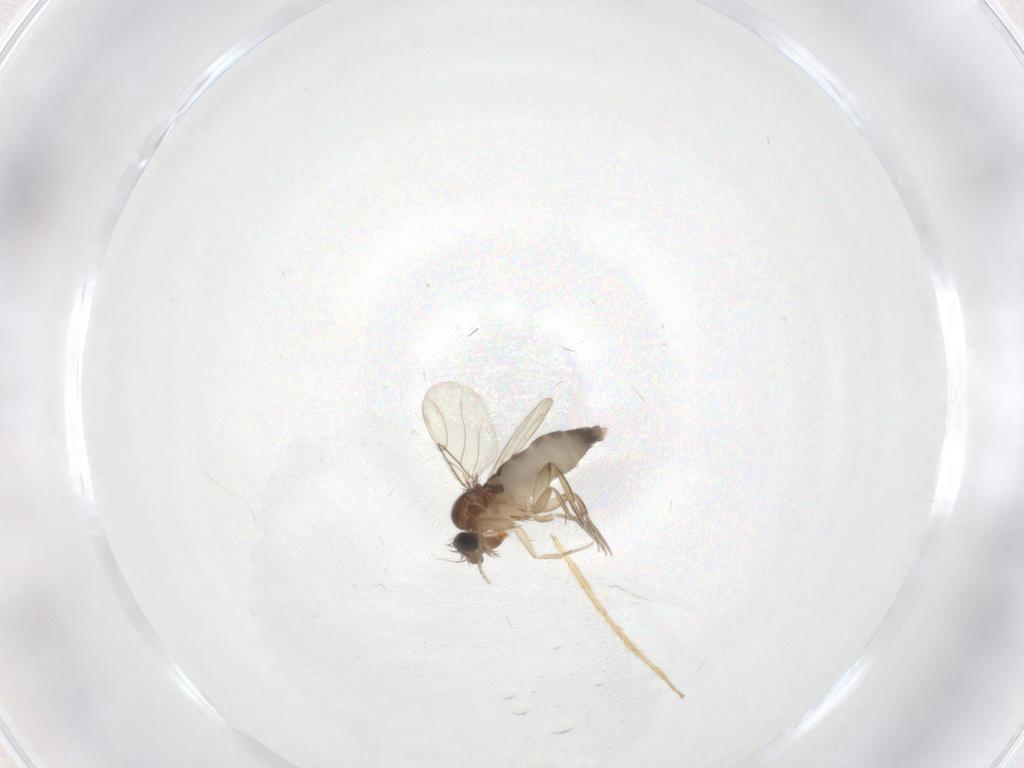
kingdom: Animalia
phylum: Arthropoda
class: Insecta
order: Diptera
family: Phoridae
